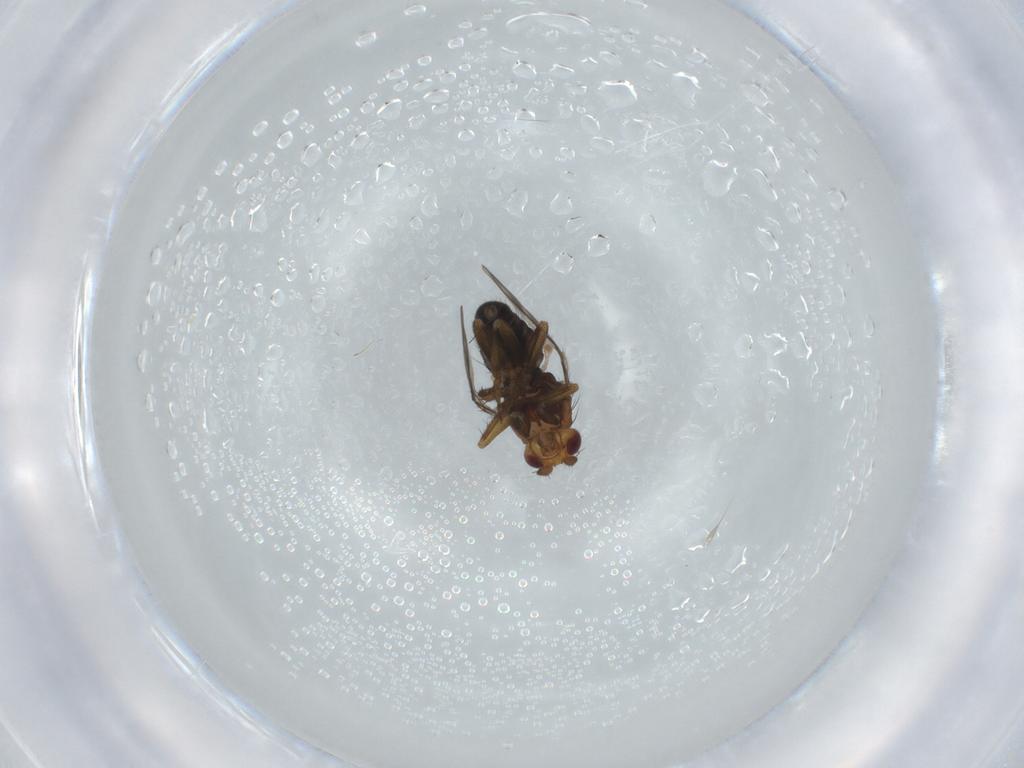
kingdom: Animalia
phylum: Arthropoda
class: Insecta
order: Diptera
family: Sphaeroceridae
